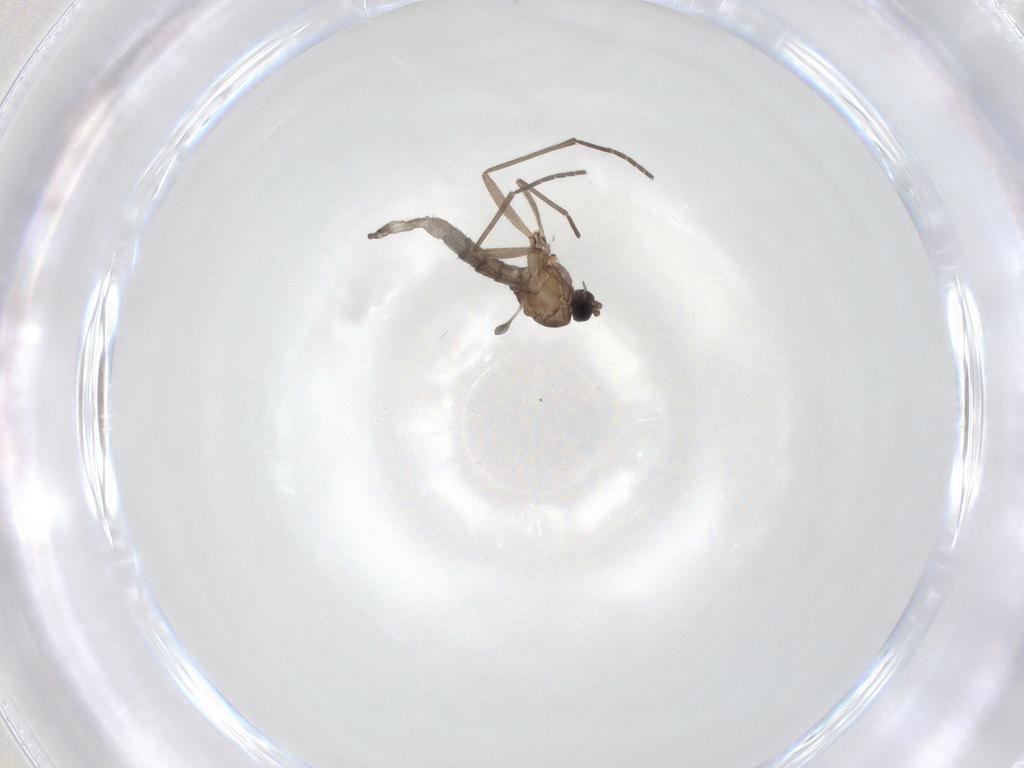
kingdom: Animalia
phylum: Arthropoda
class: Insecta
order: Diptera
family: Sciaridae
